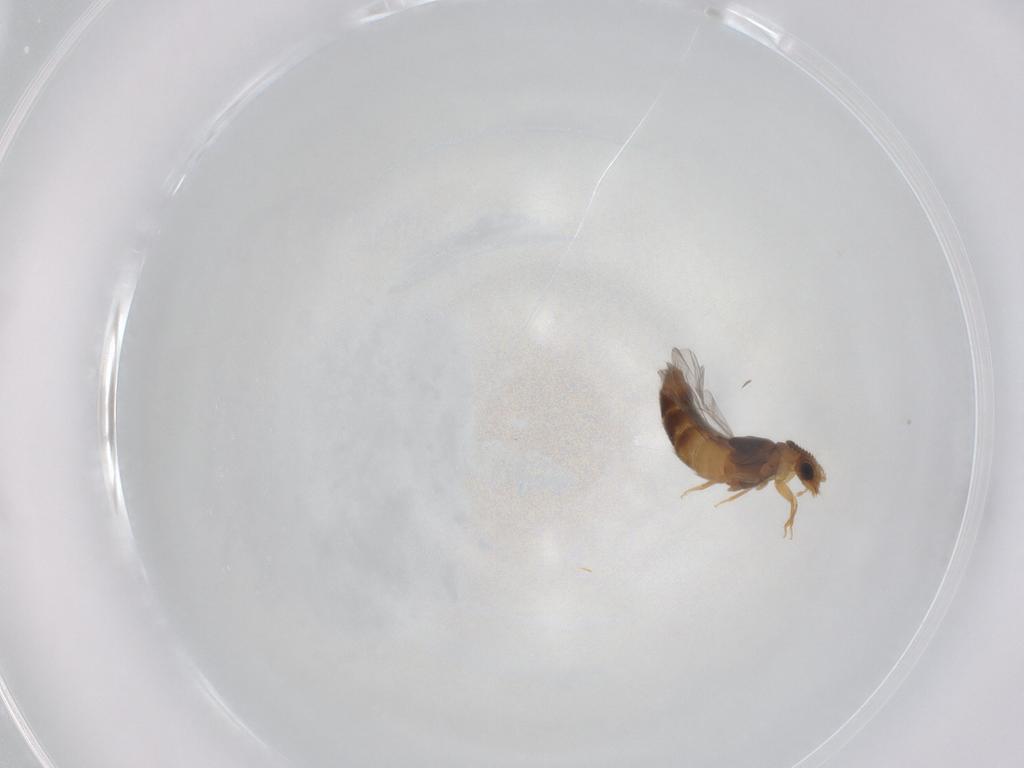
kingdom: Animalia
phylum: Arthropoda
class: Insecta
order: Coleoptera
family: Staphylinidae
